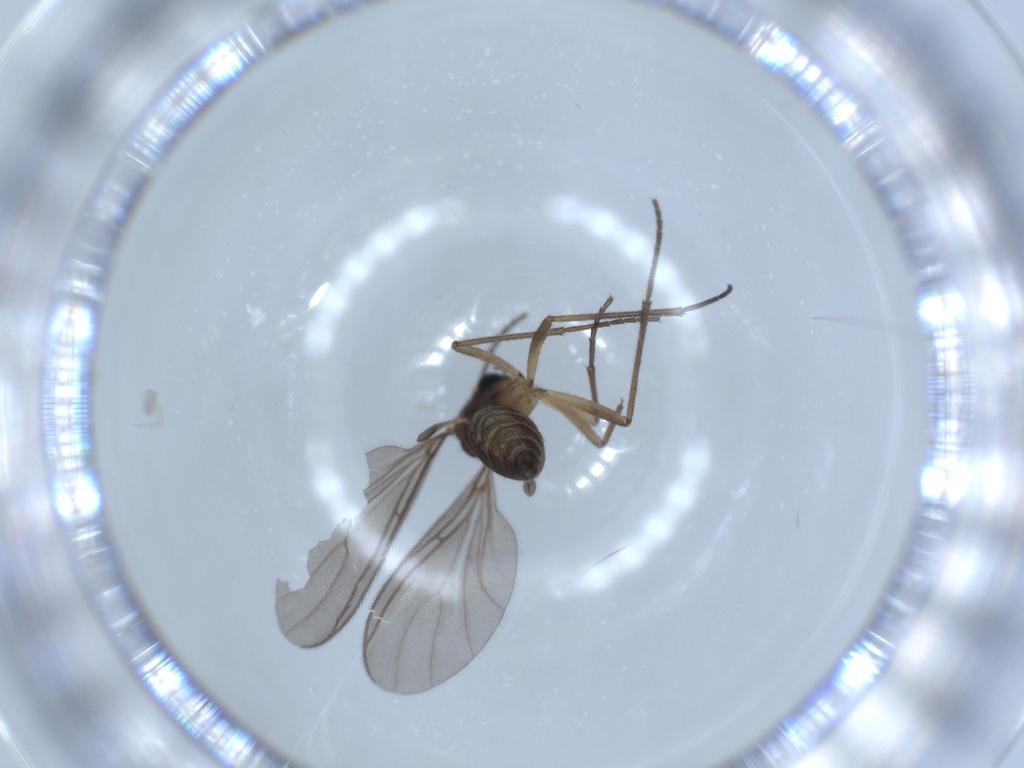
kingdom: Animalia
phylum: Arthropoda
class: Insecta
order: Diptera
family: Sciaridae
